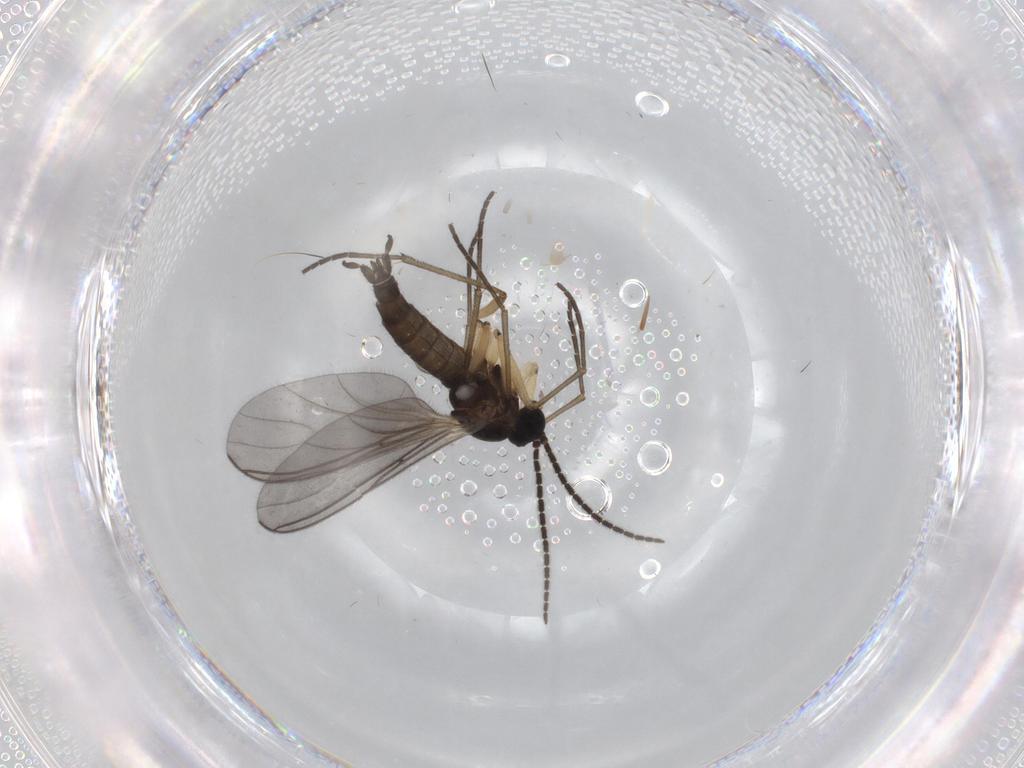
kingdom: Animalia
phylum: Arthropoda
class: Insecta
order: Diptera
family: Sciaridae
